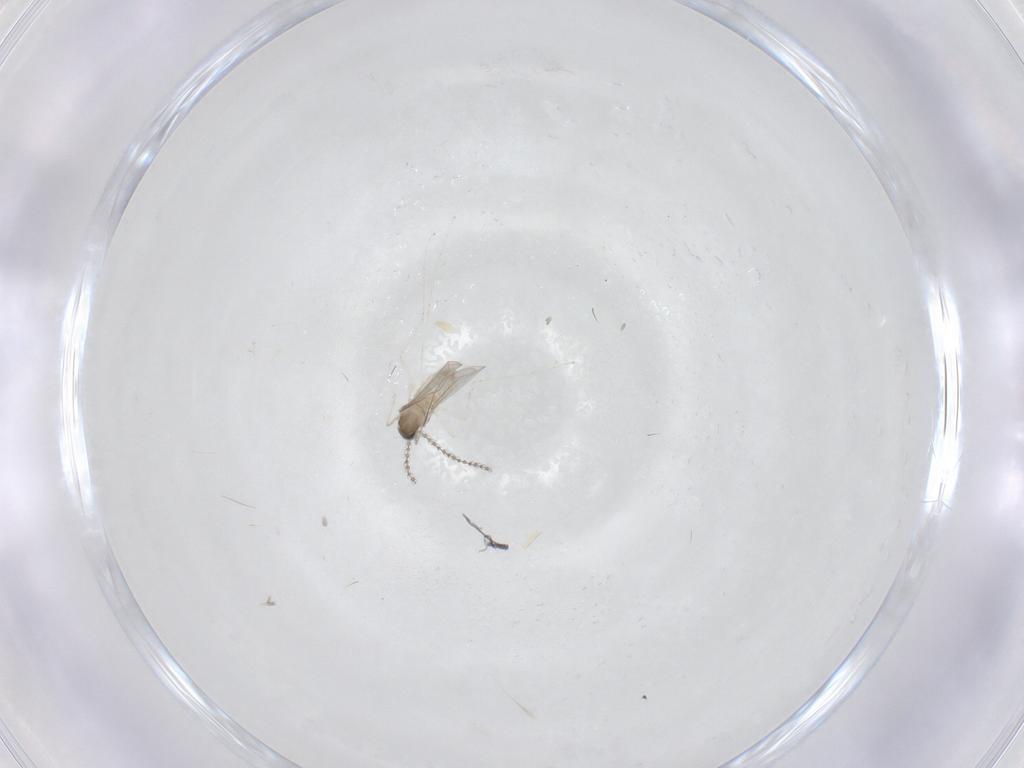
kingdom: Animalia
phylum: Arthropoda
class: Insecta
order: Diptera
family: Cecidomyiidae
